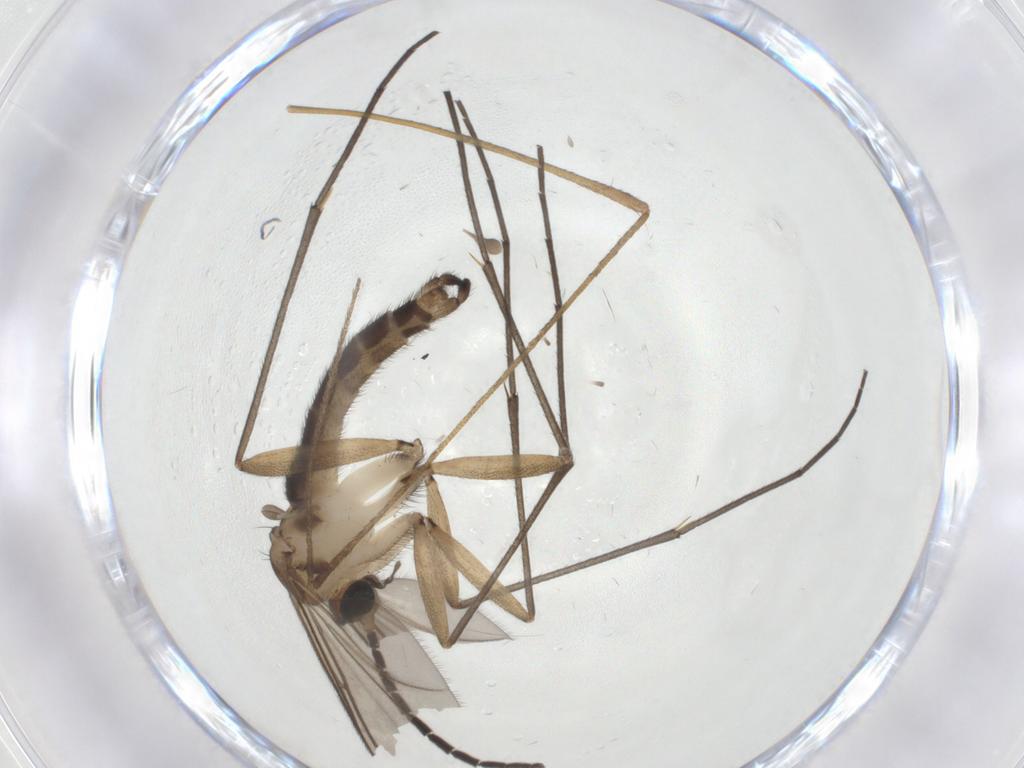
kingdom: Animalia
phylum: Arthropoda
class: Insecta
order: Diptera
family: Sciaridae
